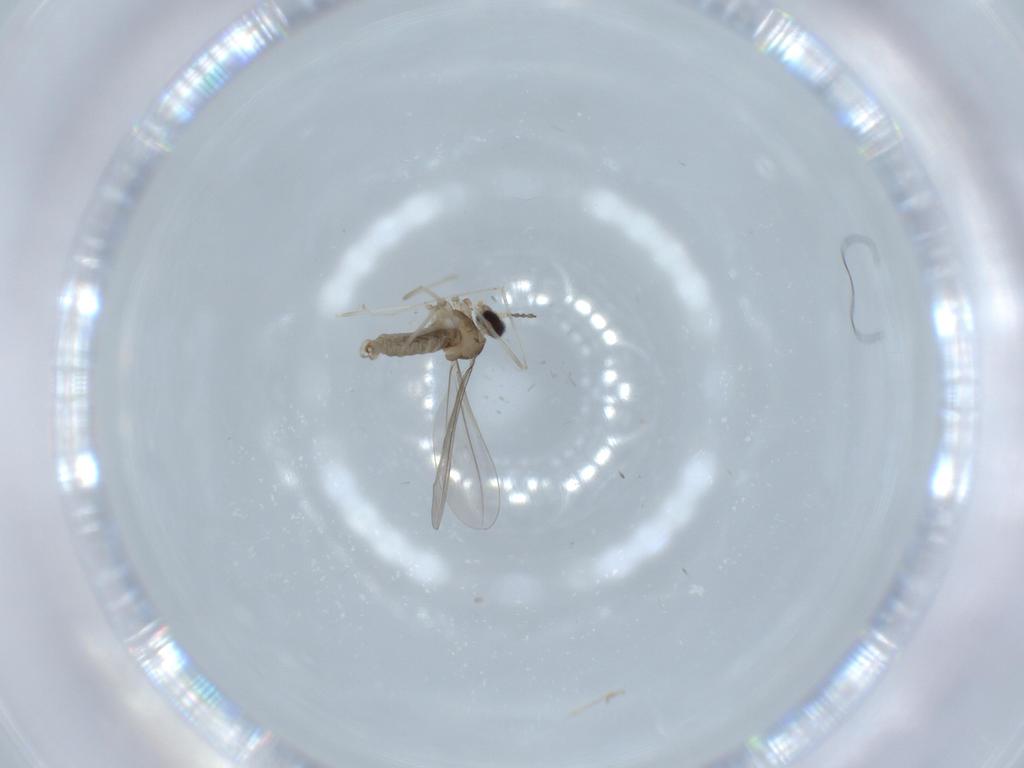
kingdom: Animalia
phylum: Arthropoda
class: Insecta
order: Diptera
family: Cecidomyiidae
